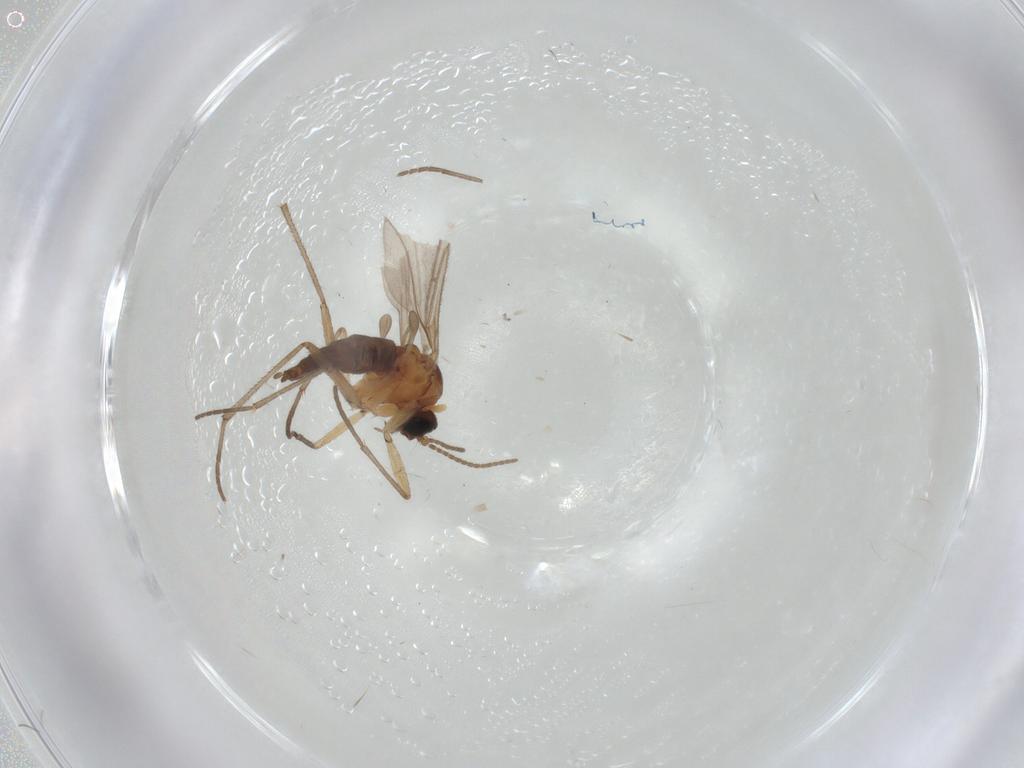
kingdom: Animalia
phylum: Arthropoda
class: Insecta
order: Diptera
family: Sciaridae
